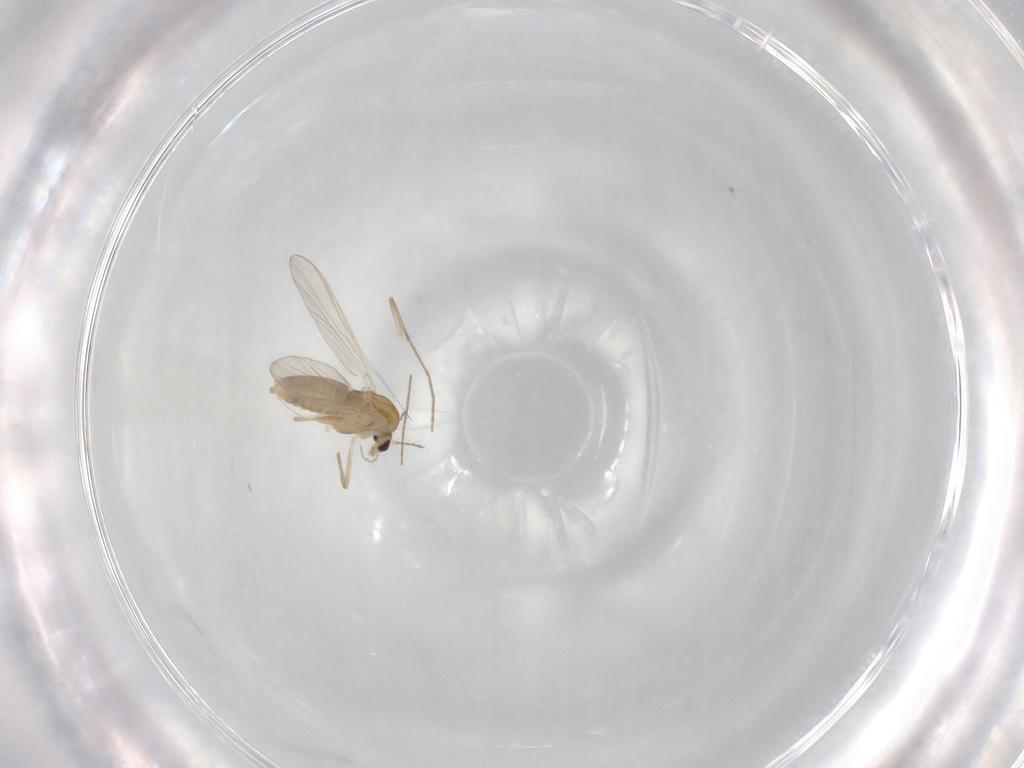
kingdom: Animalia
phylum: Arthropoda
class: Insecta
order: Diptera
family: Chironomidae
